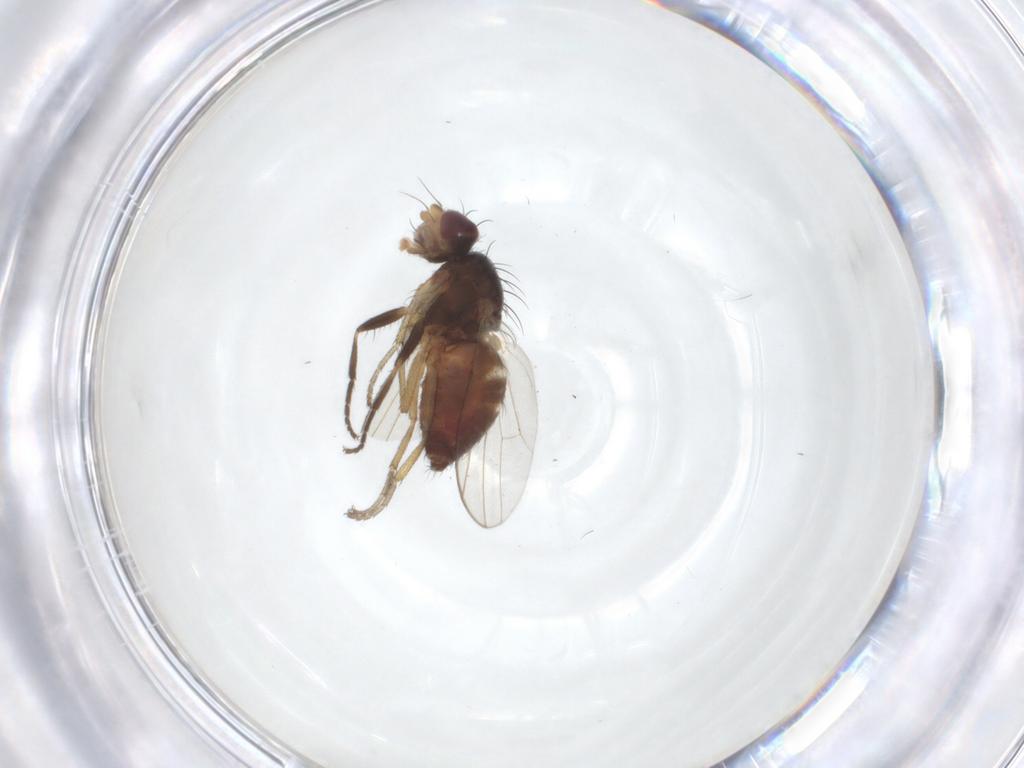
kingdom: Animalia
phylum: Arthropoda
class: Insecta
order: Diptera
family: Heleomyzidae
